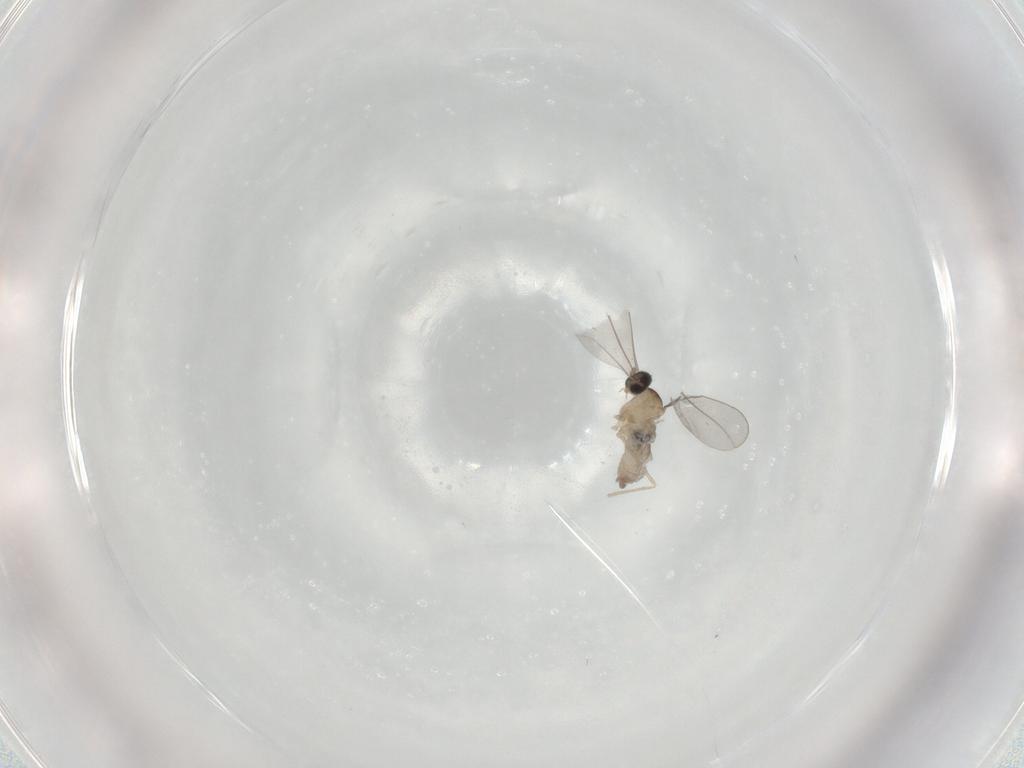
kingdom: Animalia
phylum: Arthropoda
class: Insecta
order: Diptera
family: Cecidomyiidae
